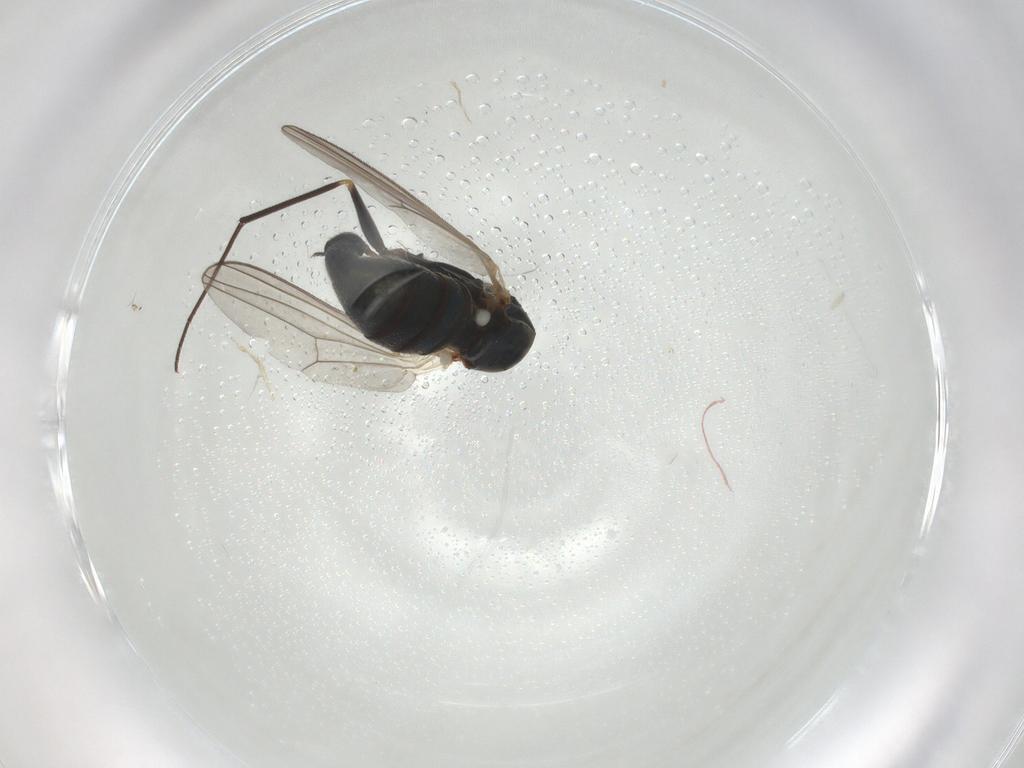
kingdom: Animalia
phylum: Arthropoda
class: Insecta
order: Diptera
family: Dolichopodidae
